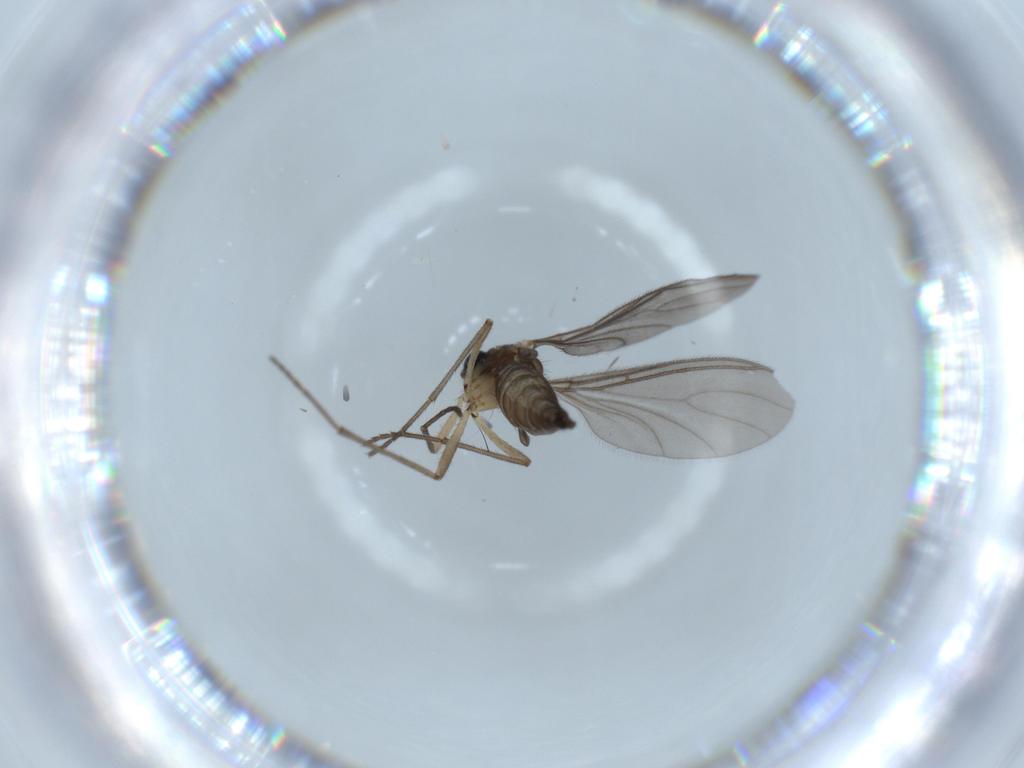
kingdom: Animalia
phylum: Arthropoda
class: Insecta
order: Diptera
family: Phoridae
